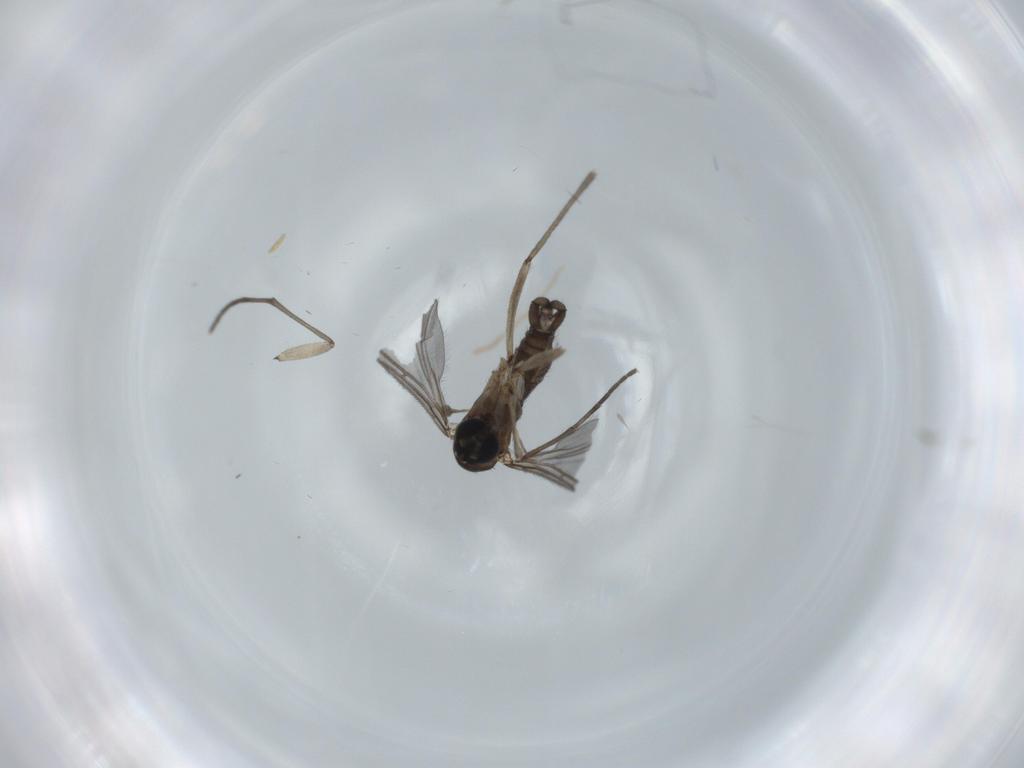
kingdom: Animalia
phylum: Arthropoda
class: Insecta
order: Diptera
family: Sciaridae
